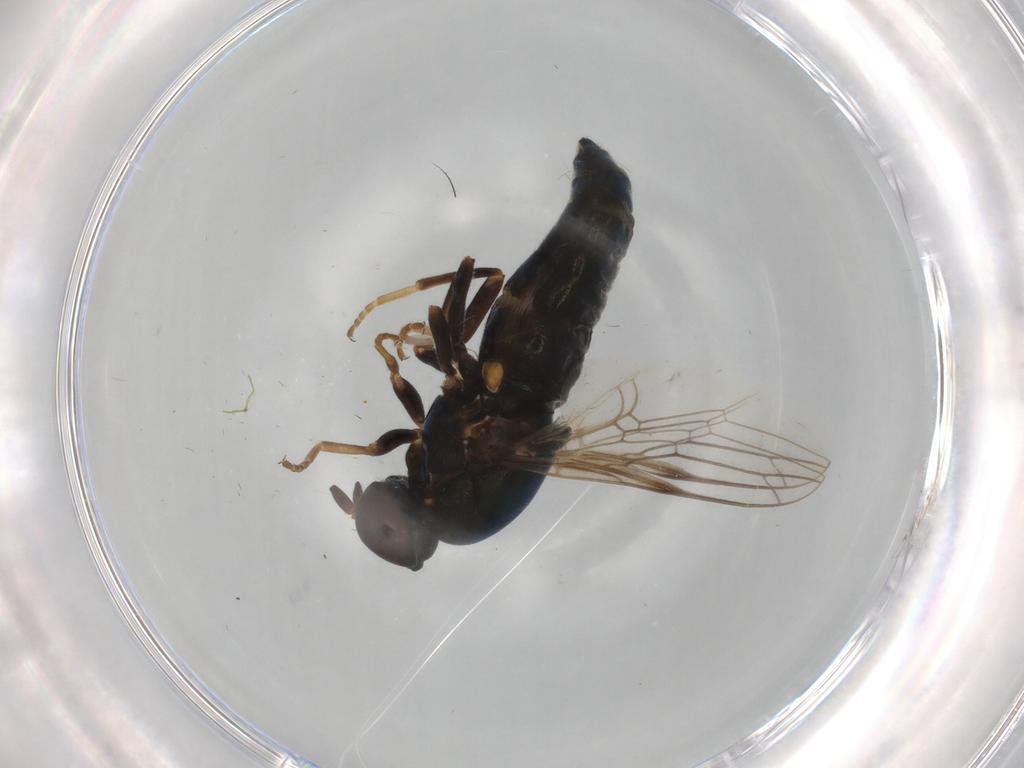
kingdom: Animalia
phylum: Arthropoda
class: Insecta
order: Diptera
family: Scenopinidae
